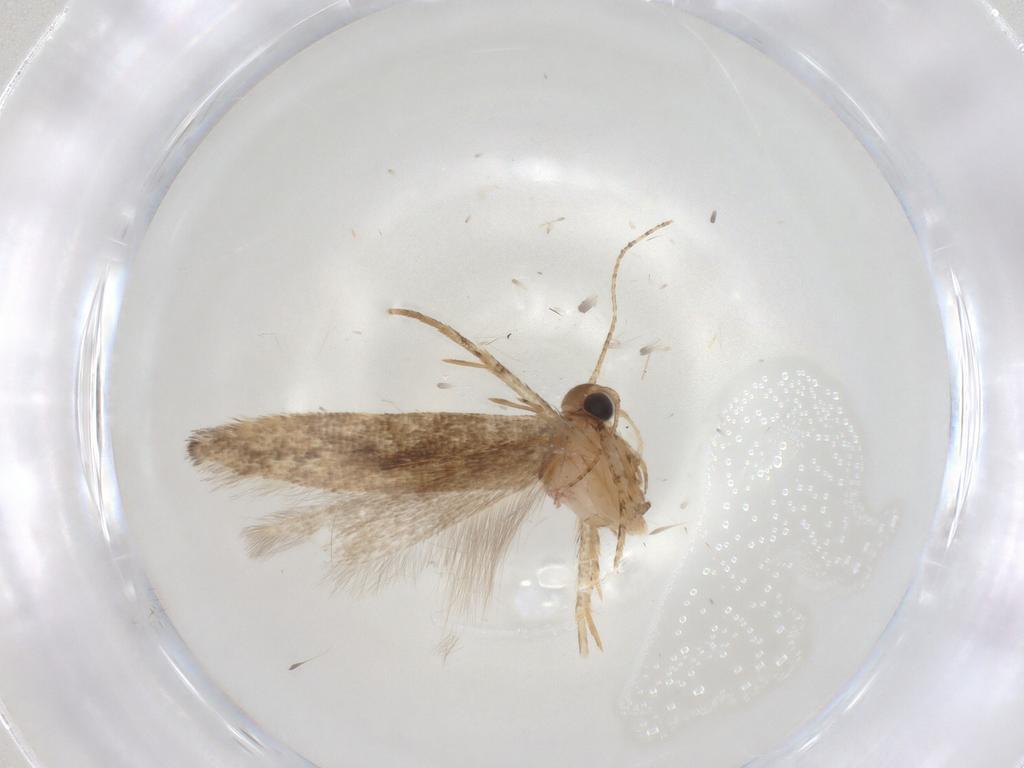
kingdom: Animalia
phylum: Arthropoda
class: Insecta
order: Lepidoptera
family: Gelechiidae
